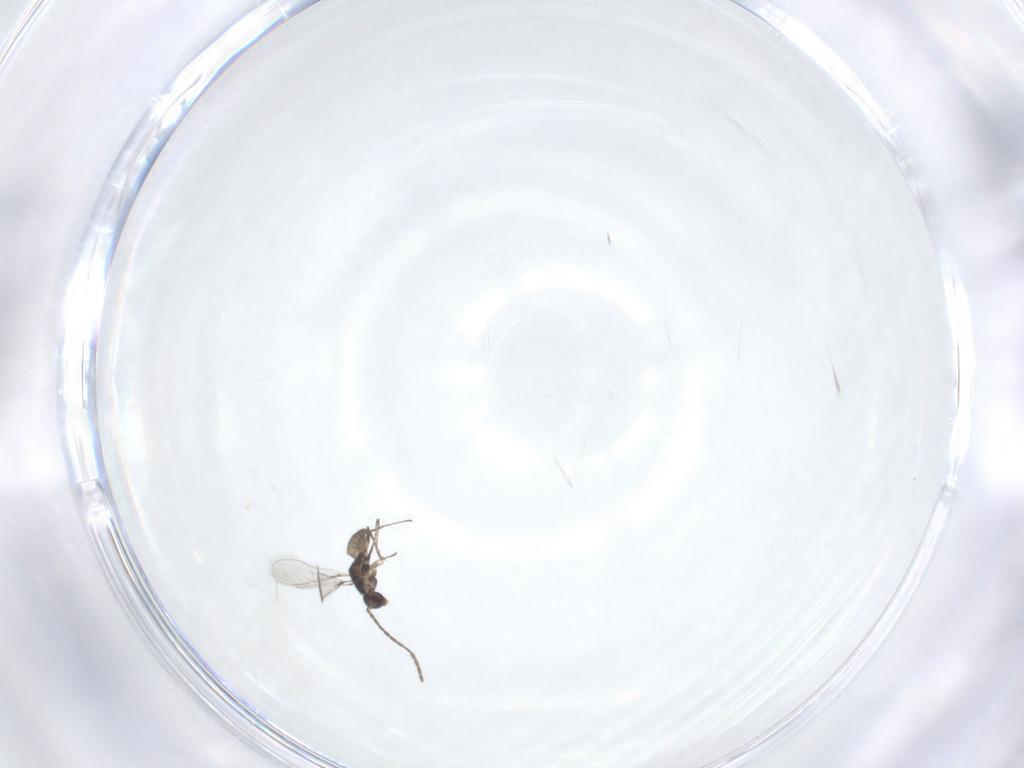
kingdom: Animalia
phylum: Arthropoda
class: Insecta
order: Hymenoptera
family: Mymaridae
